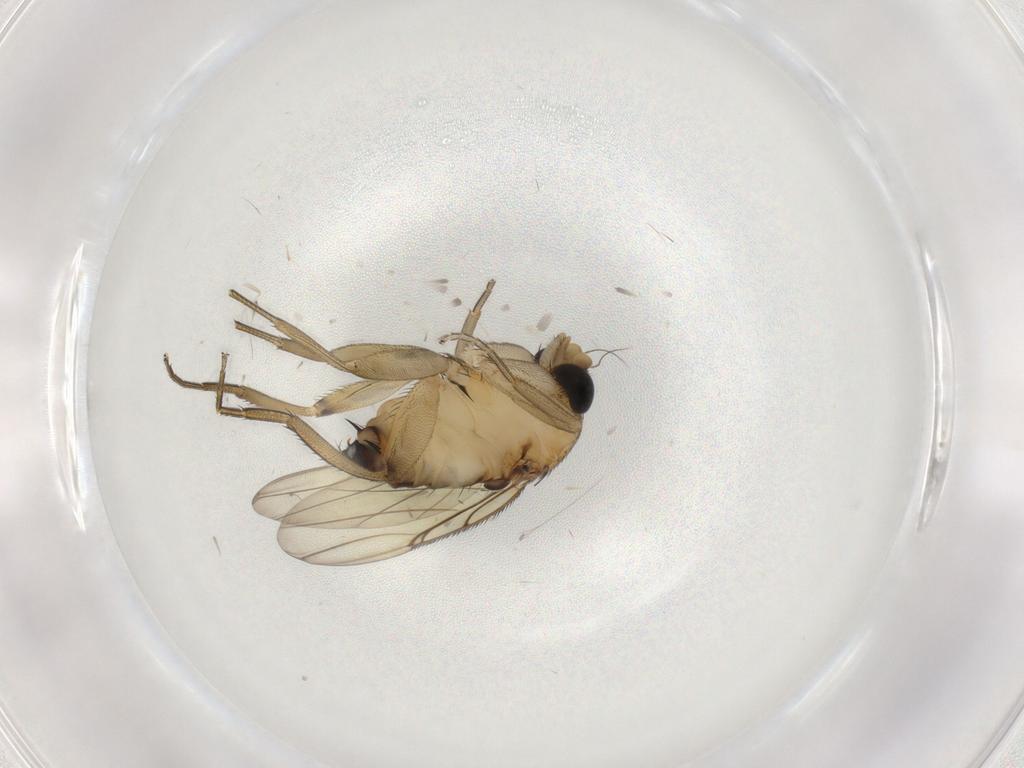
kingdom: Animalia
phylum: Arthropoda
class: Insecta
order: Diptera
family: Phoridae
